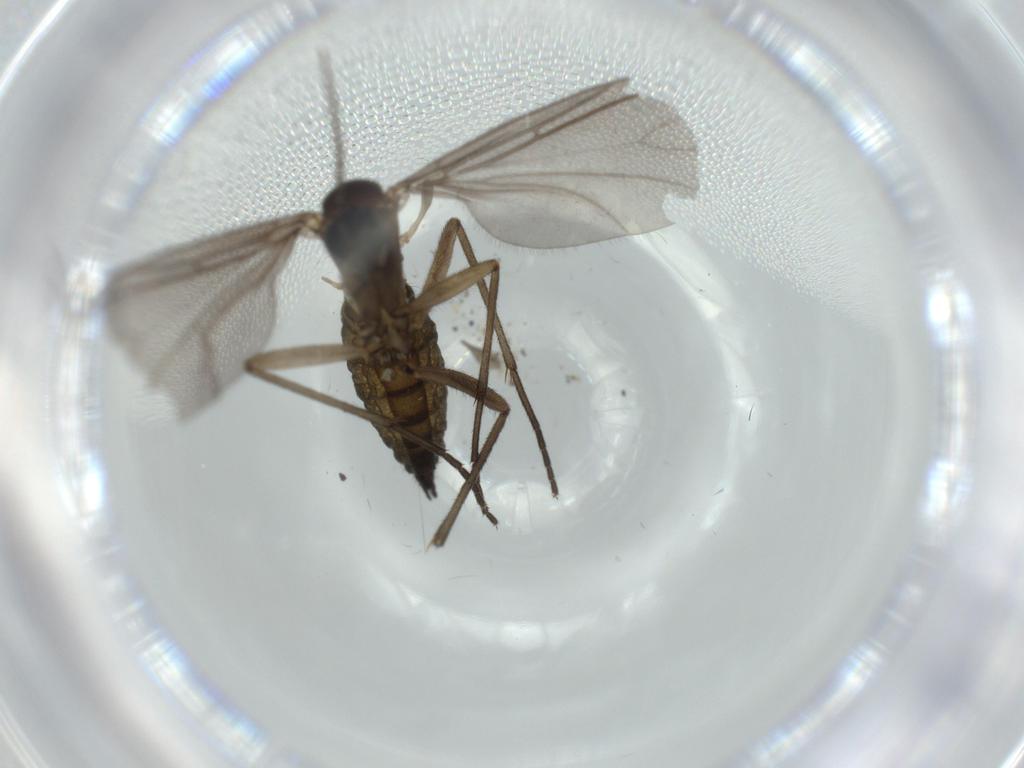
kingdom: Animalia
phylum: Arthropoda
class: Insecta
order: Diptera
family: Sciaridae
